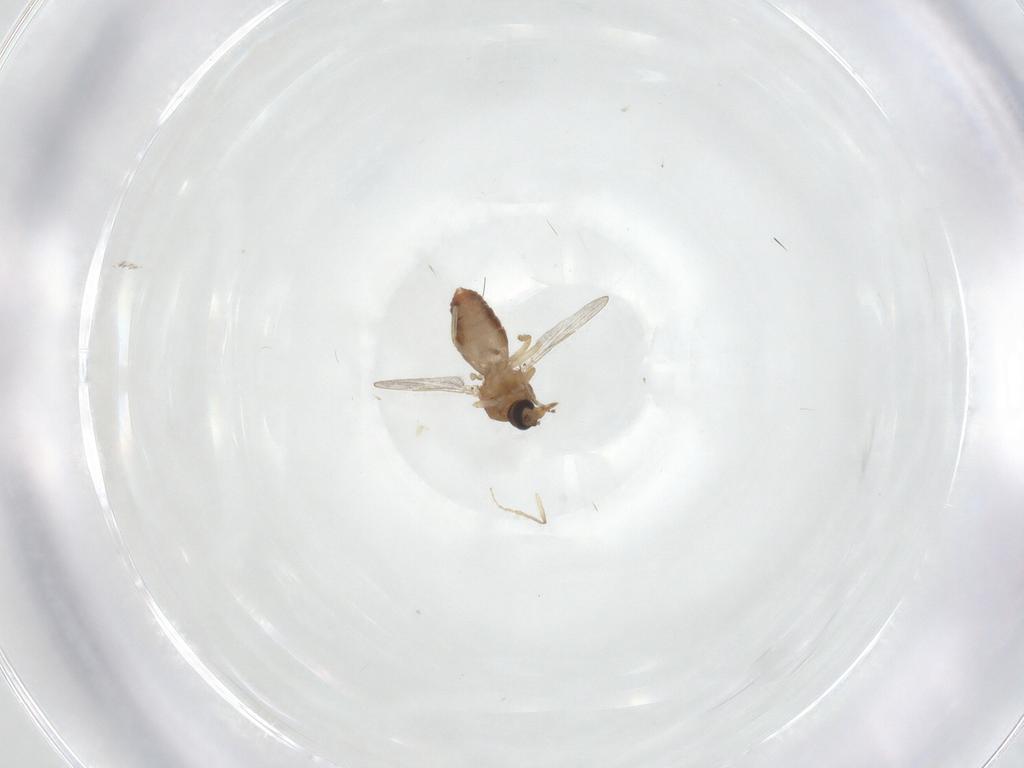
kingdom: Animalia
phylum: Arthropoda
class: Insecta
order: Diptera
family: Ceratopogonidae
